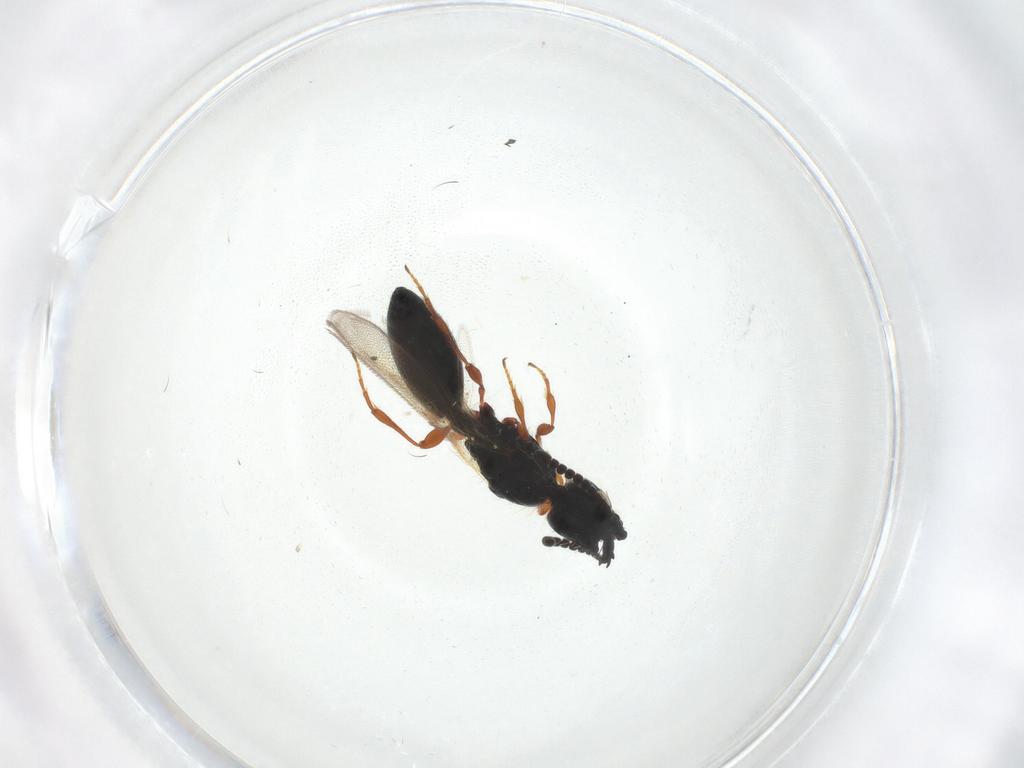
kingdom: Animalia
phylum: Arthropoda
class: Insecta
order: Hymenoptera
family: Diapriidae
